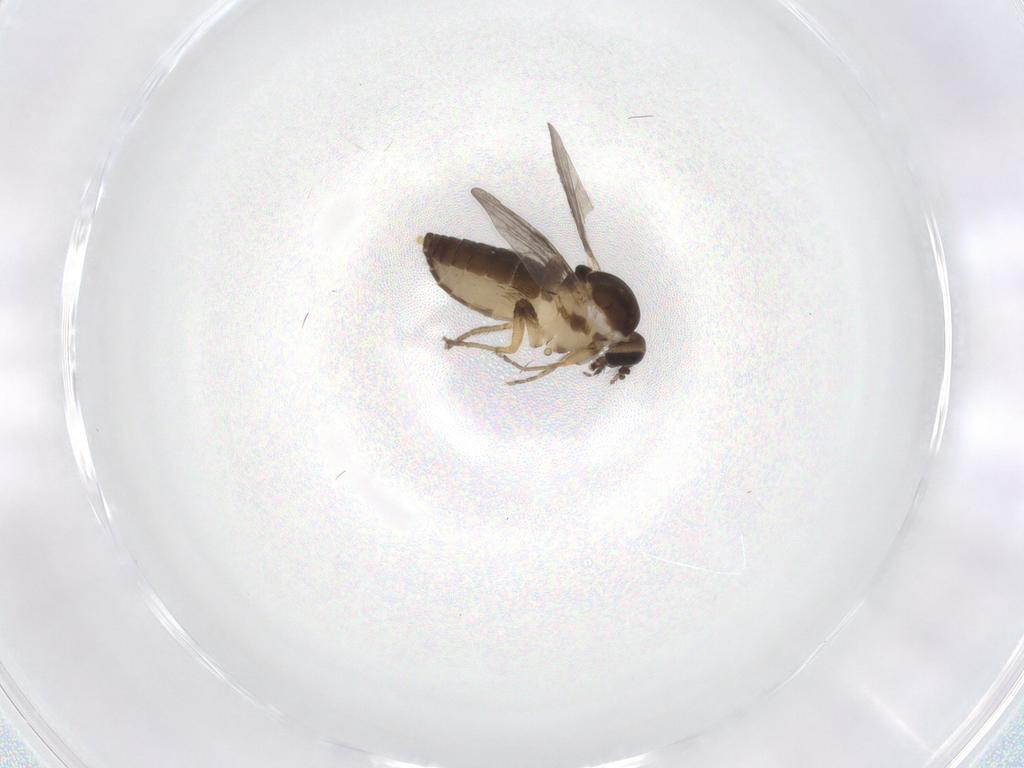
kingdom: Animalia
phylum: Arthropoda
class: Insecta
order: Diptera
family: Ceratopogonidae
